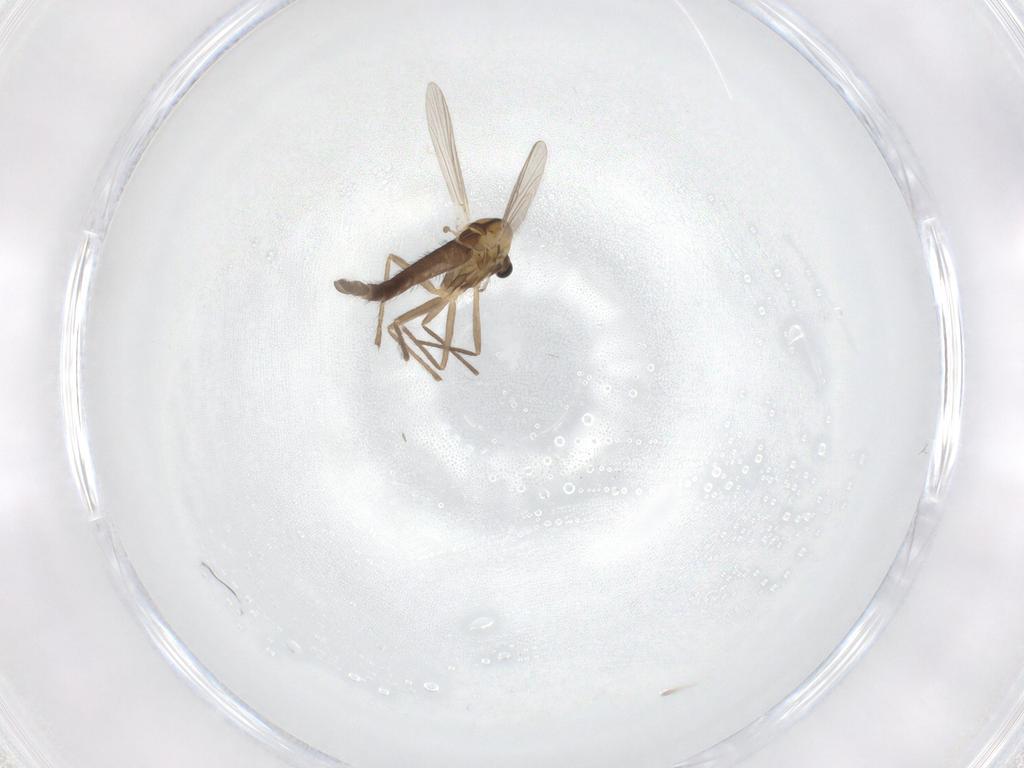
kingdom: Animalia
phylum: Arthropoda
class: Insecta
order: Diptera
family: Chironomidae
